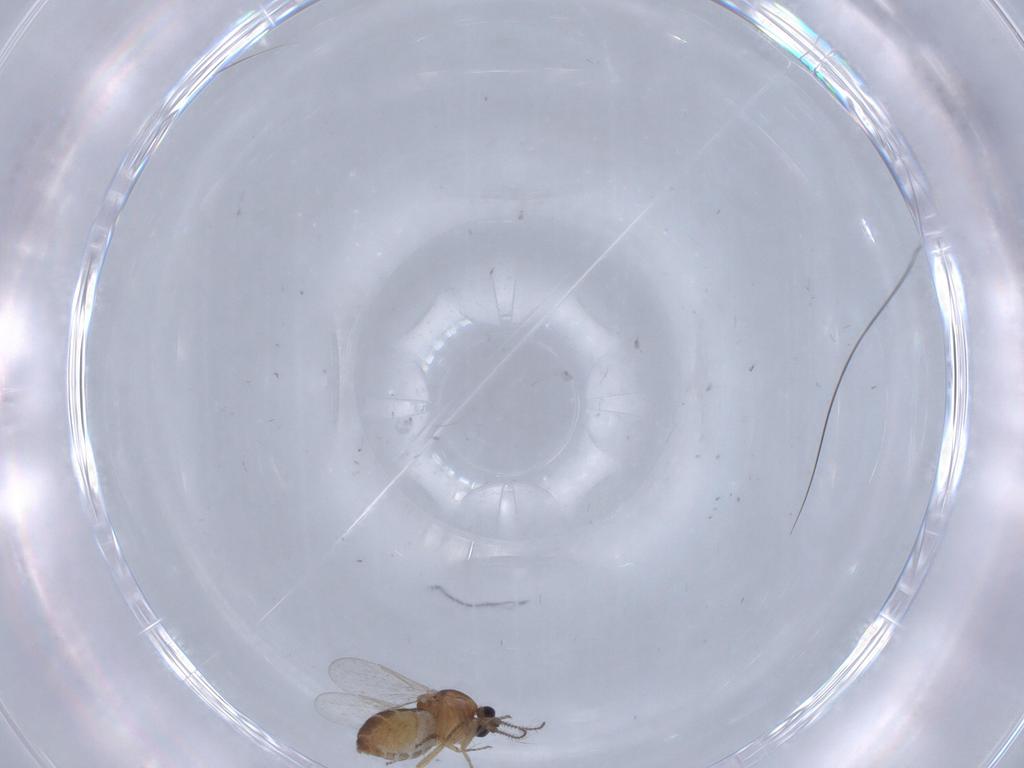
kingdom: Animalia
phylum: Arthropoda
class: Insecta
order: Diptera
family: Ceratopogonidae
